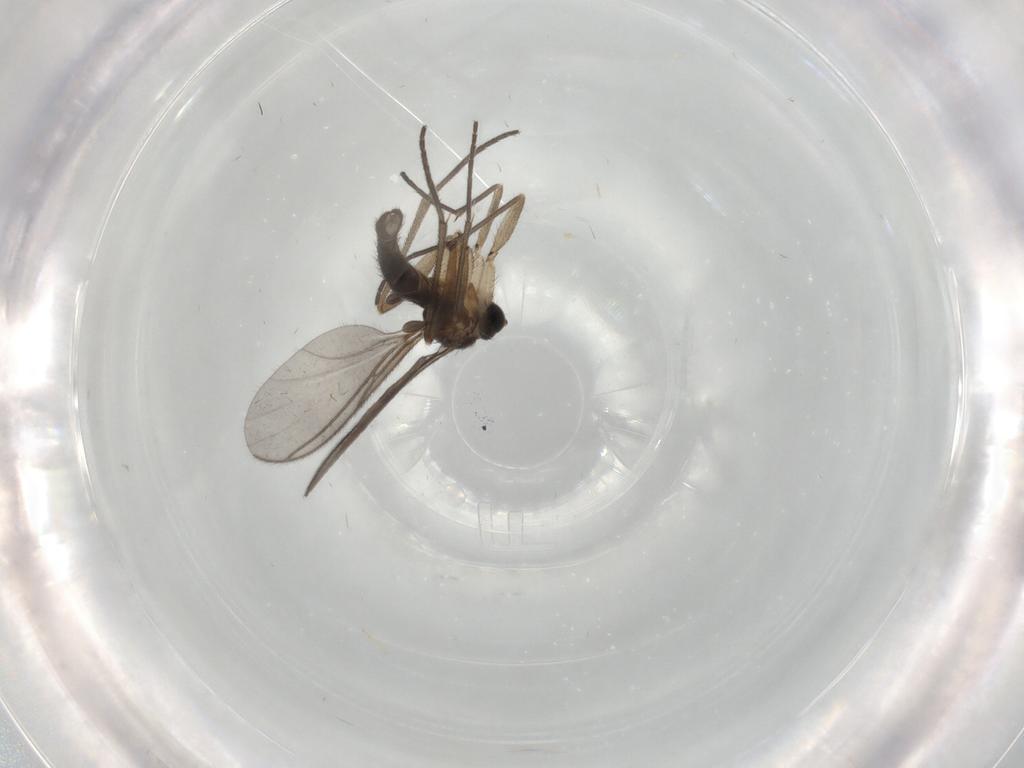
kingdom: Animalia
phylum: Arthropoda
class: Insecta
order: Diptera
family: Sciaridae
